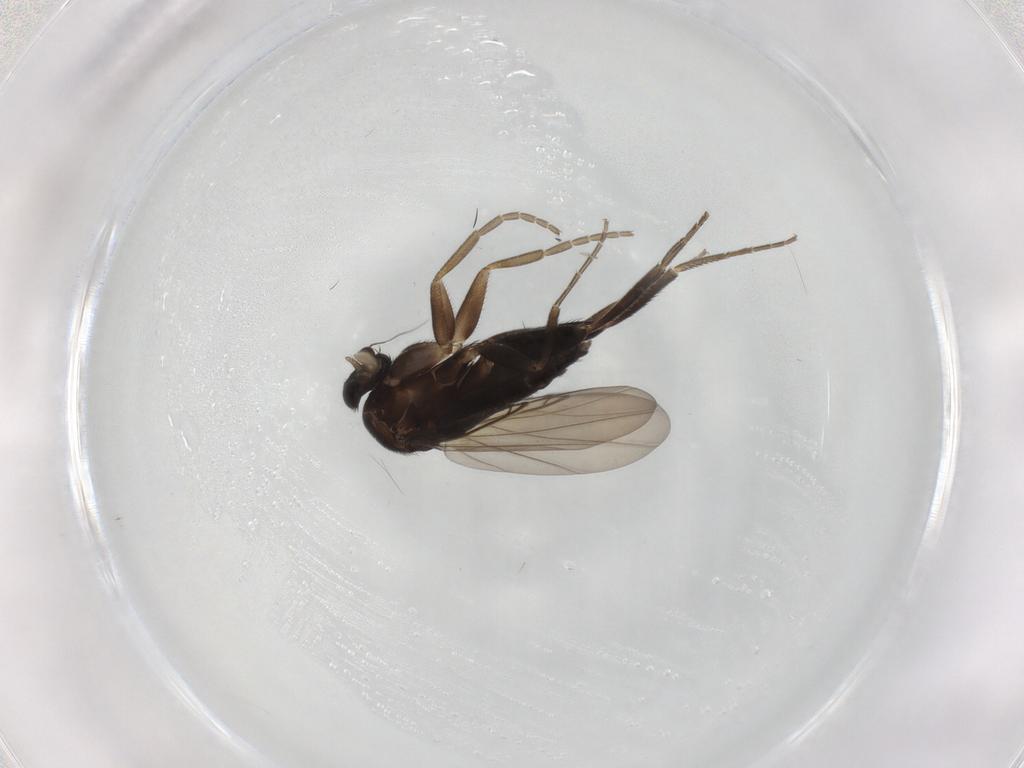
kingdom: Animalia
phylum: Arthropoda
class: Insecta
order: Diptera
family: Phoridae
